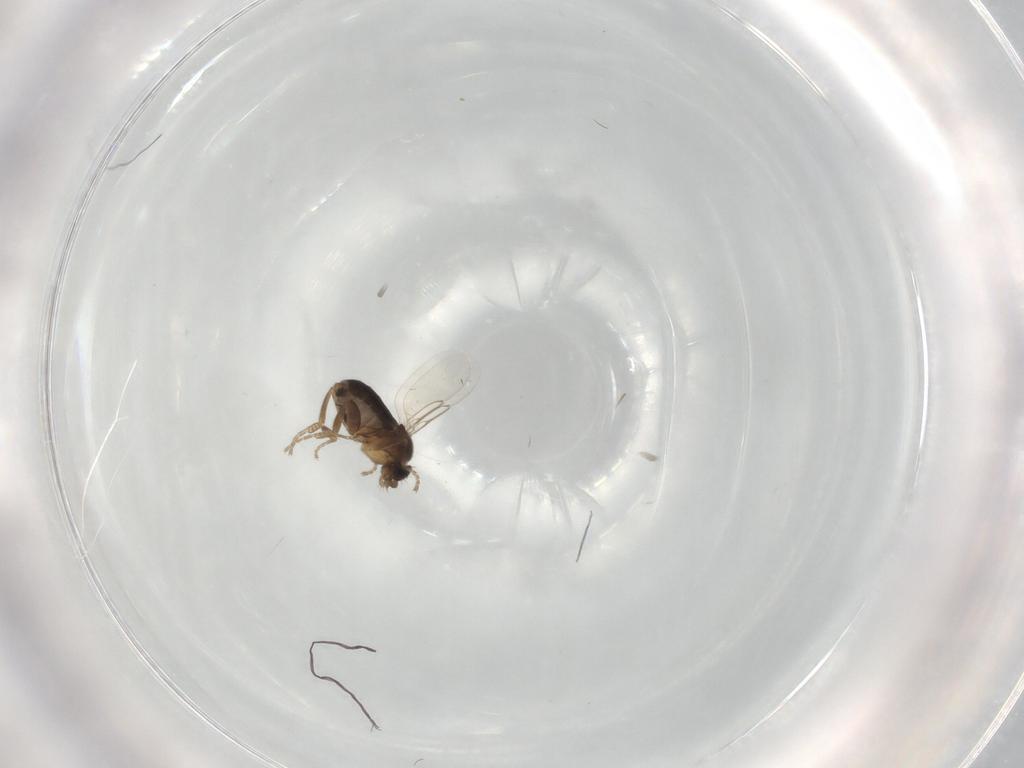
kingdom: Animalia
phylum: Arthropoda
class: Insecta
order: Diptera
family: Phoridae
